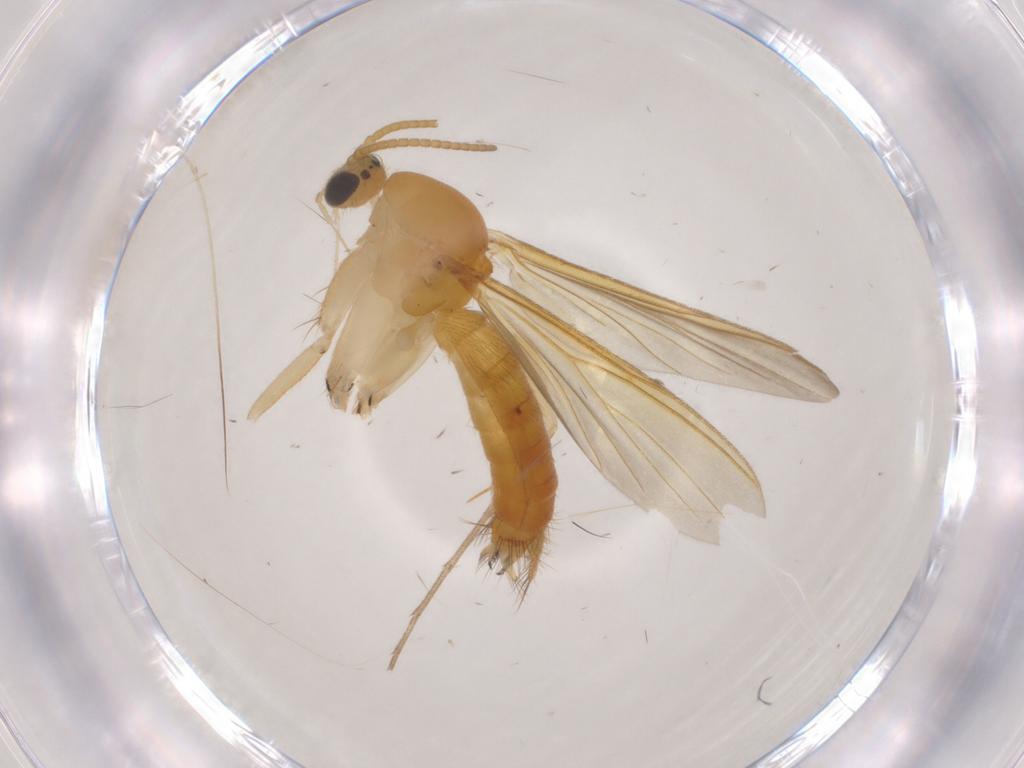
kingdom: Animalia
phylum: Arthropoda
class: Insecta
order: Diptera
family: Mycetophilidae
